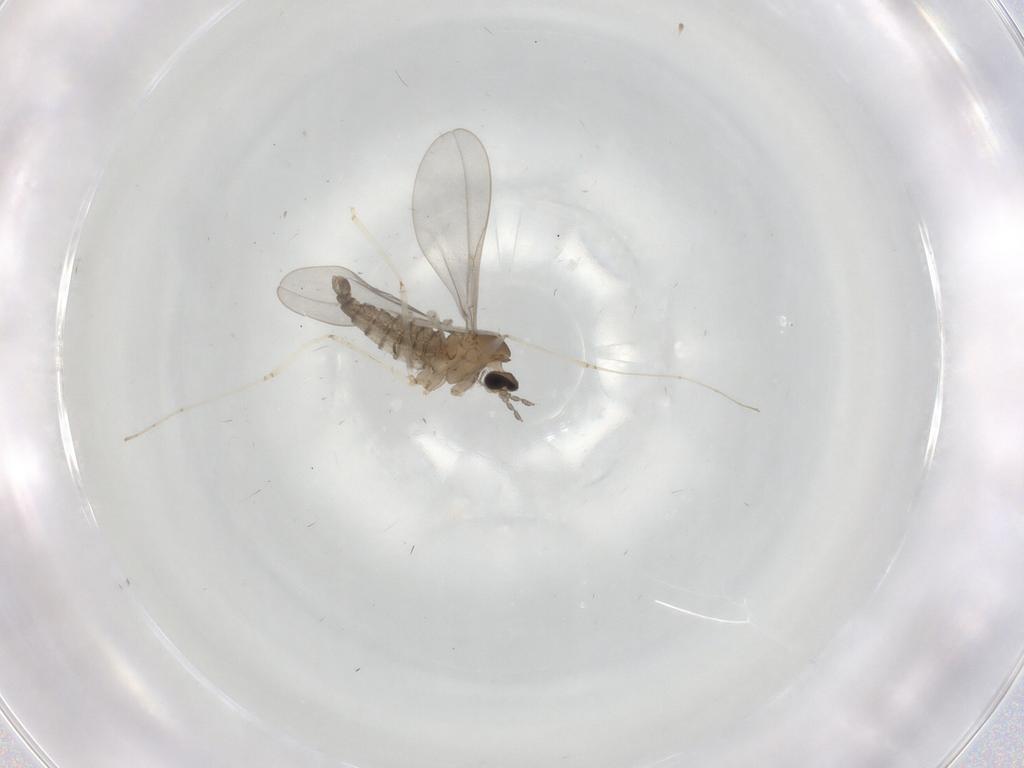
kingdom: Animalia
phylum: Arthropoda
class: Insecta
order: Diptera
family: Cecidomyiidae
